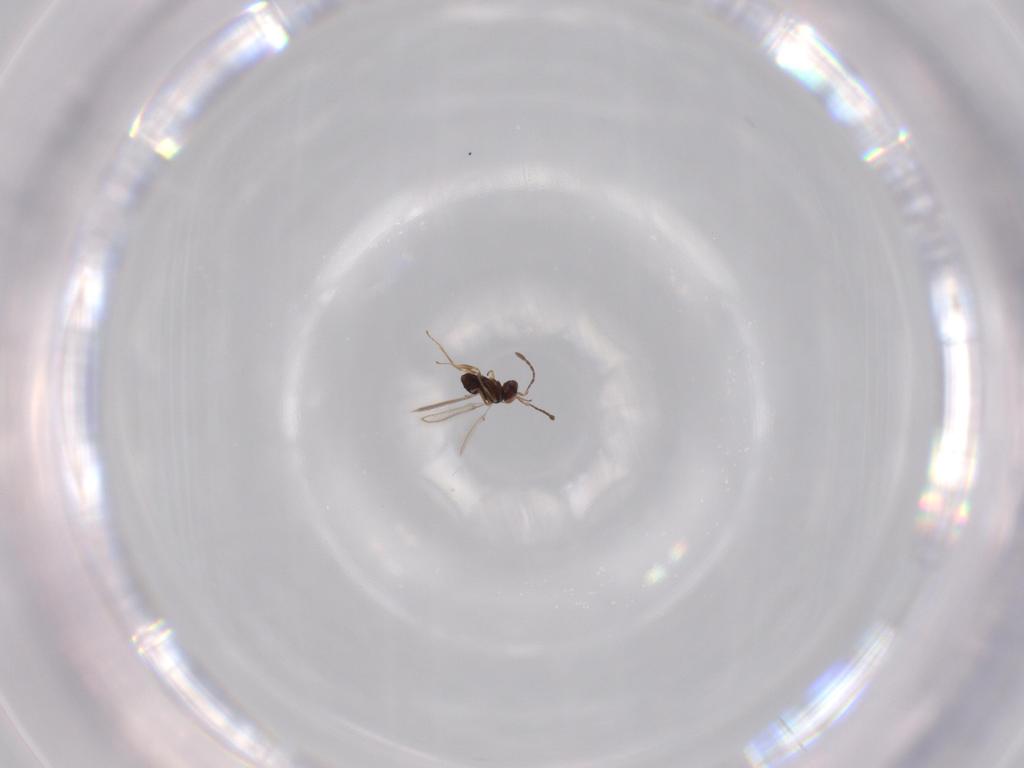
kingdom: Animalia
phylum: Arthropoda
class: Insecta
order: Hymenoptera
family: Mymaridae
